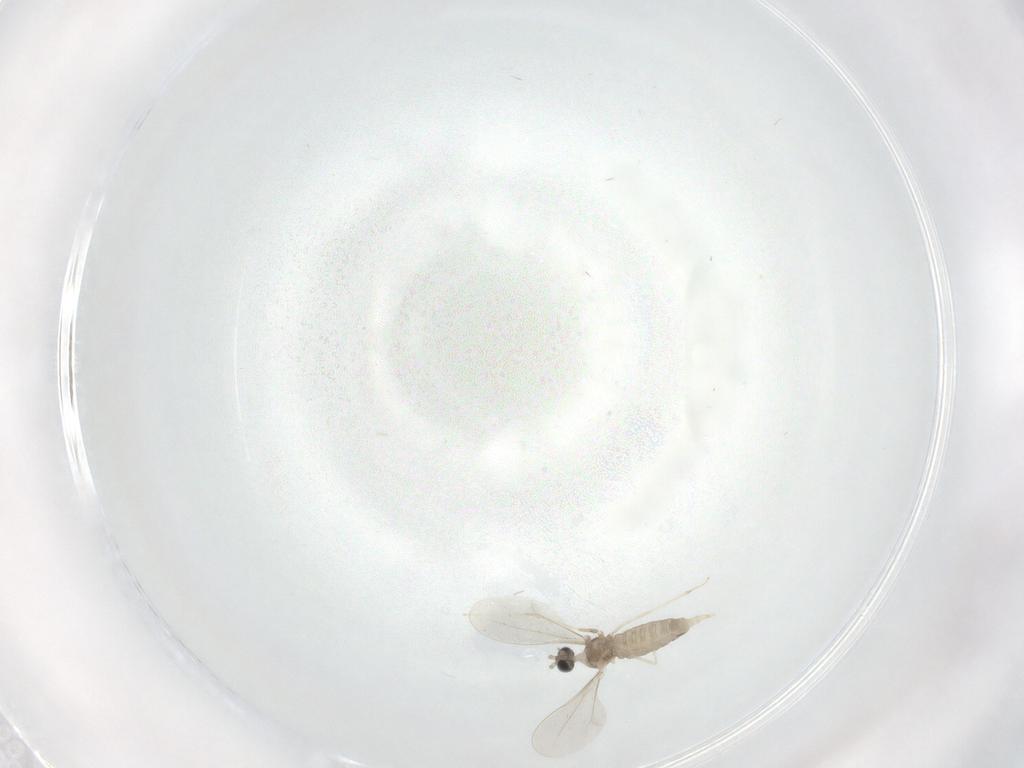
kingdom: Animalia
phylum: Arthropoda
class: Insecta
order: Diptera
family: Cecidomyiidae
